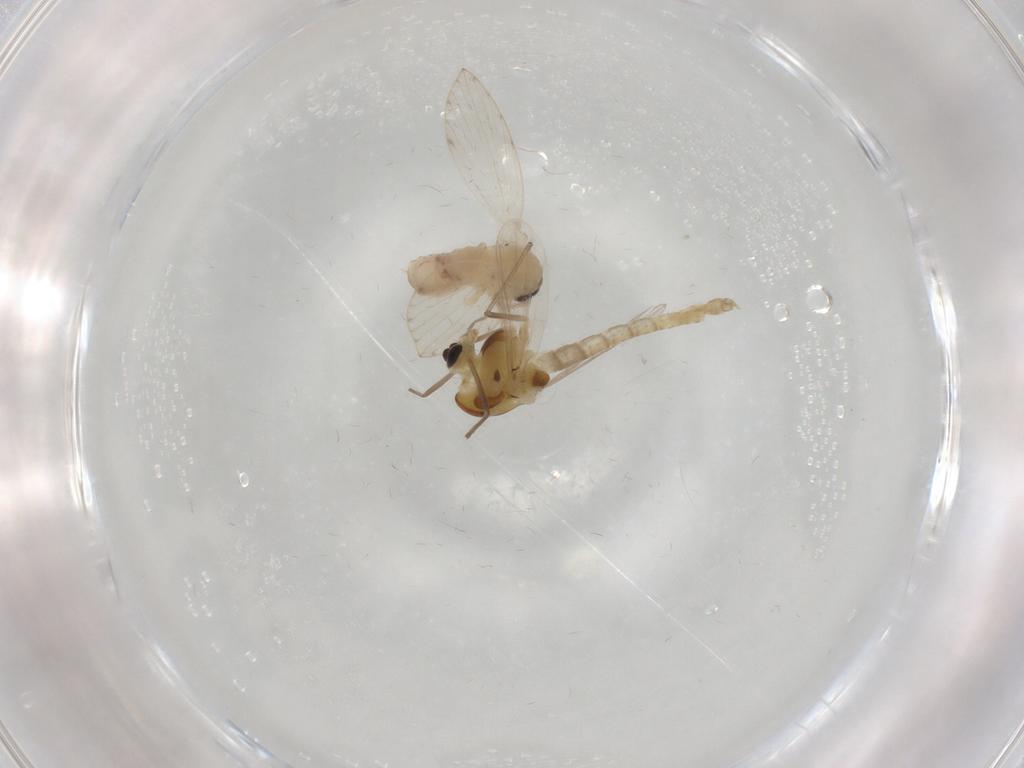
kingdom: Animalia
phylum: Arthropoda
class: Insecta
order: Diptera
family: Psychodidae
